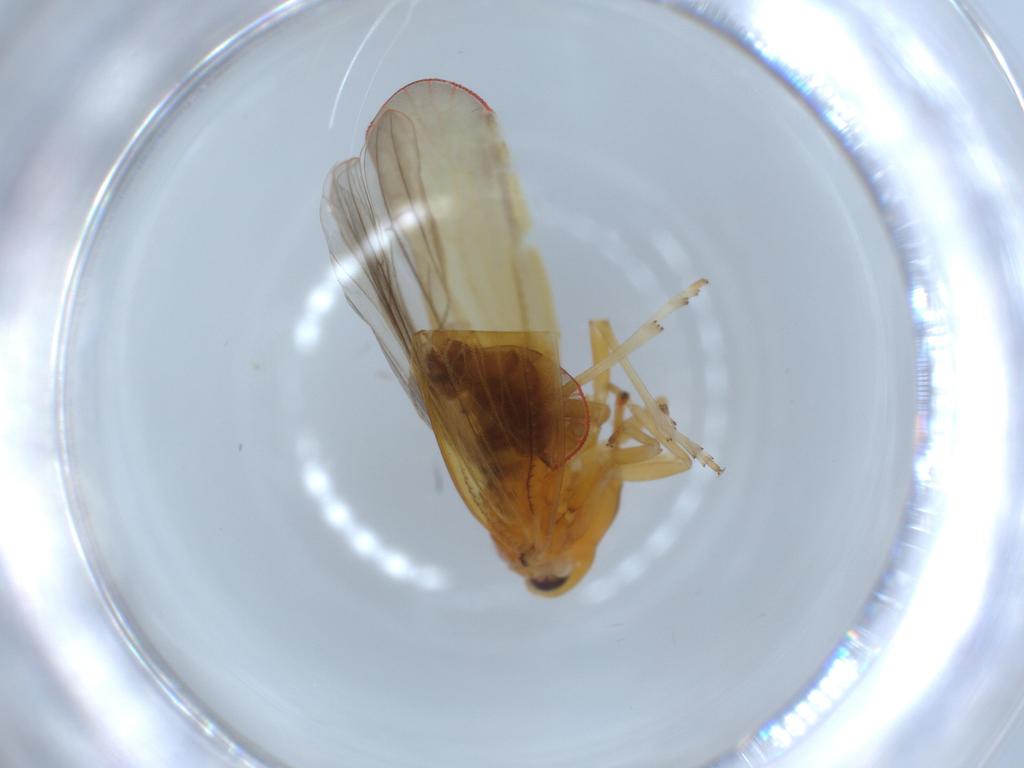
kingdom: Animalia
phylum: Arthropoda
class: Insecta
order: Hemiptera
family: Derbidae
